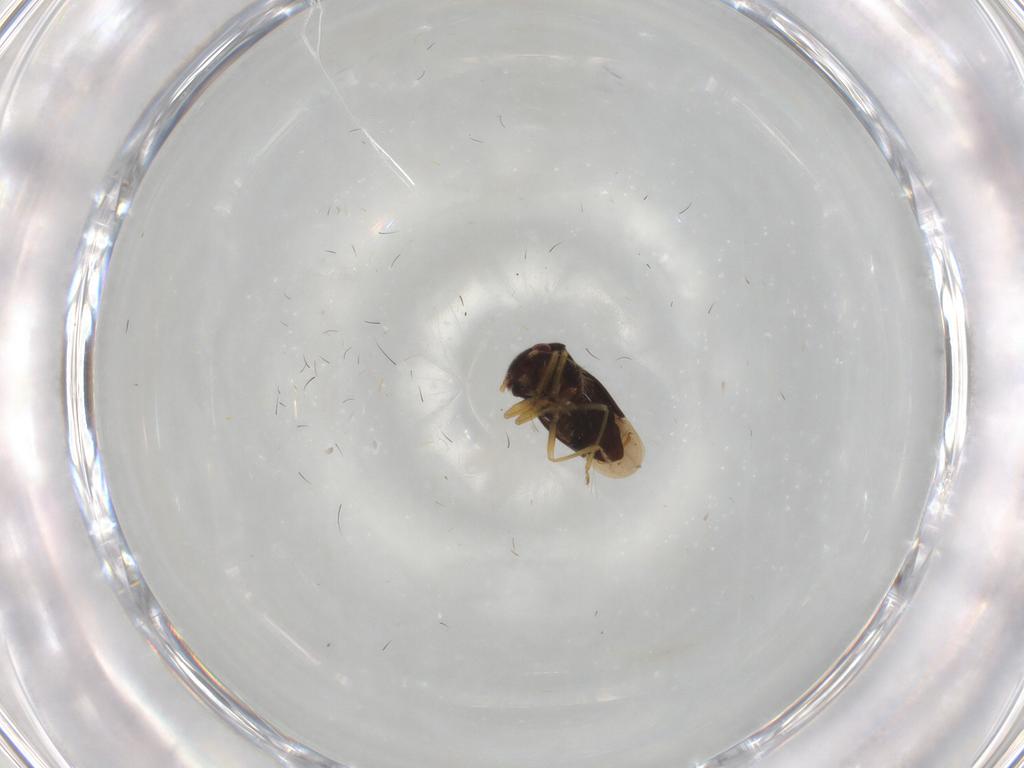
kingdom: Animalia
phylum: Arthropoda
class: Insecta
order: Hemiptera
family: Schizopteridae
